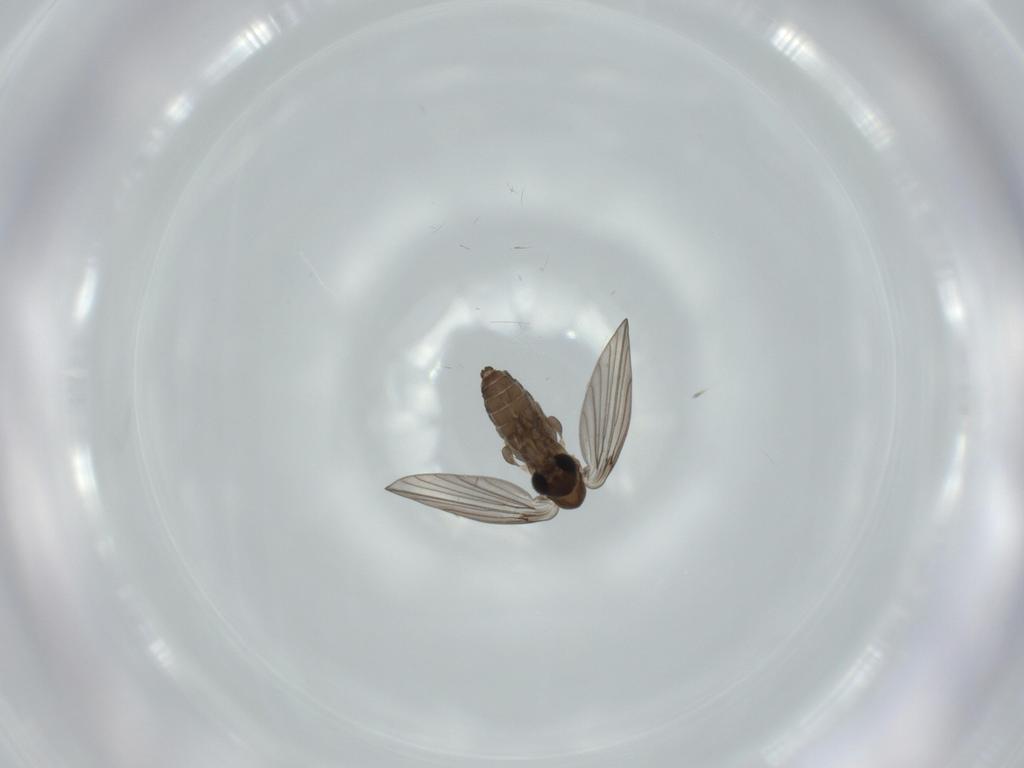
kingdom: Animalia
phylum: Arthropoda
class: Insecta
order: Diptera
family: Psychodidae
